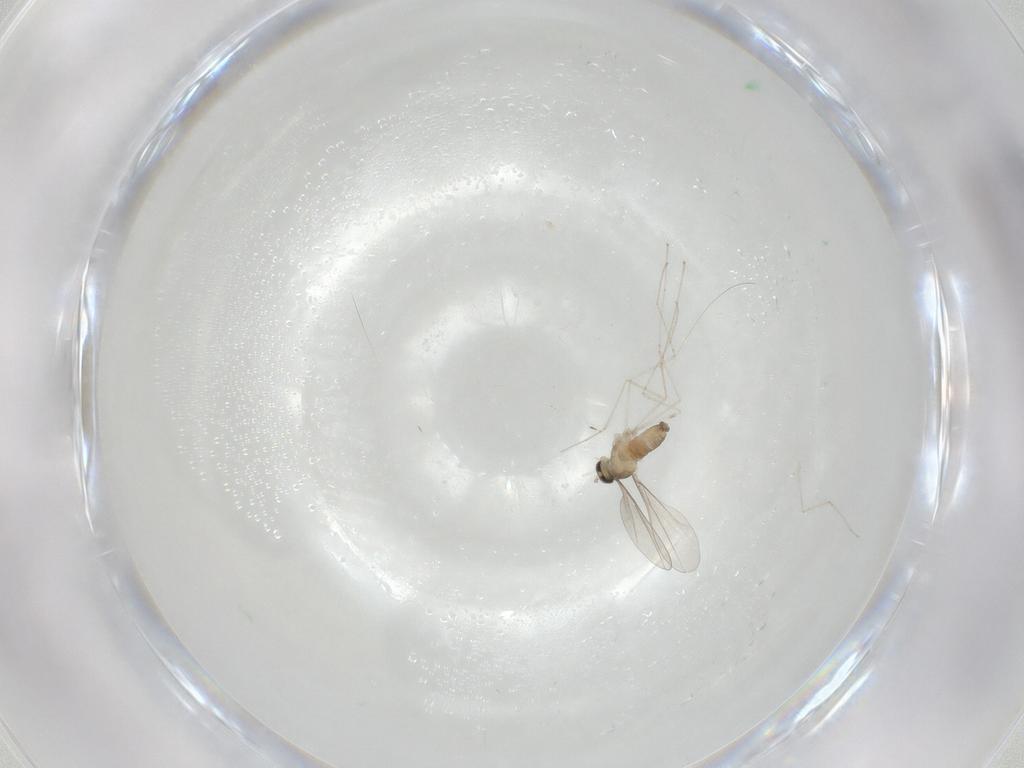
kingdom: Animalia
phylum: Arthropoda
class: Insecta
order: Diptera
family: Cecidomyiidae
